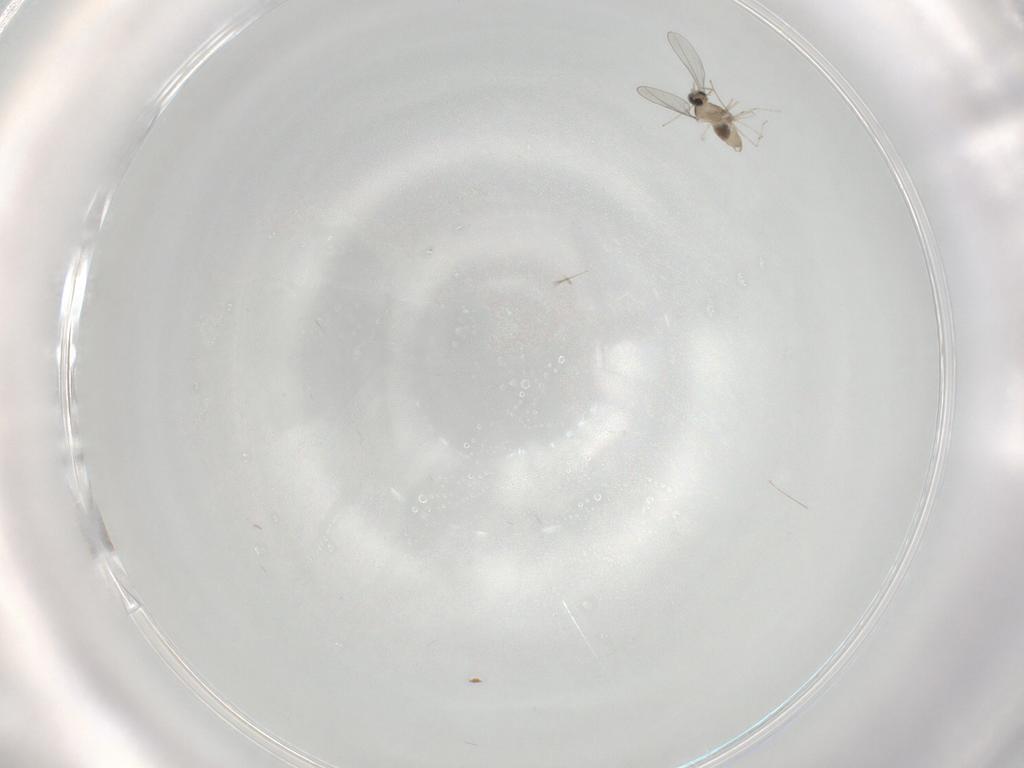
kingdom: Animalia
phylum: Arthropoda
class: Insecta
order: Diptera
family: Cecidomyiidae
